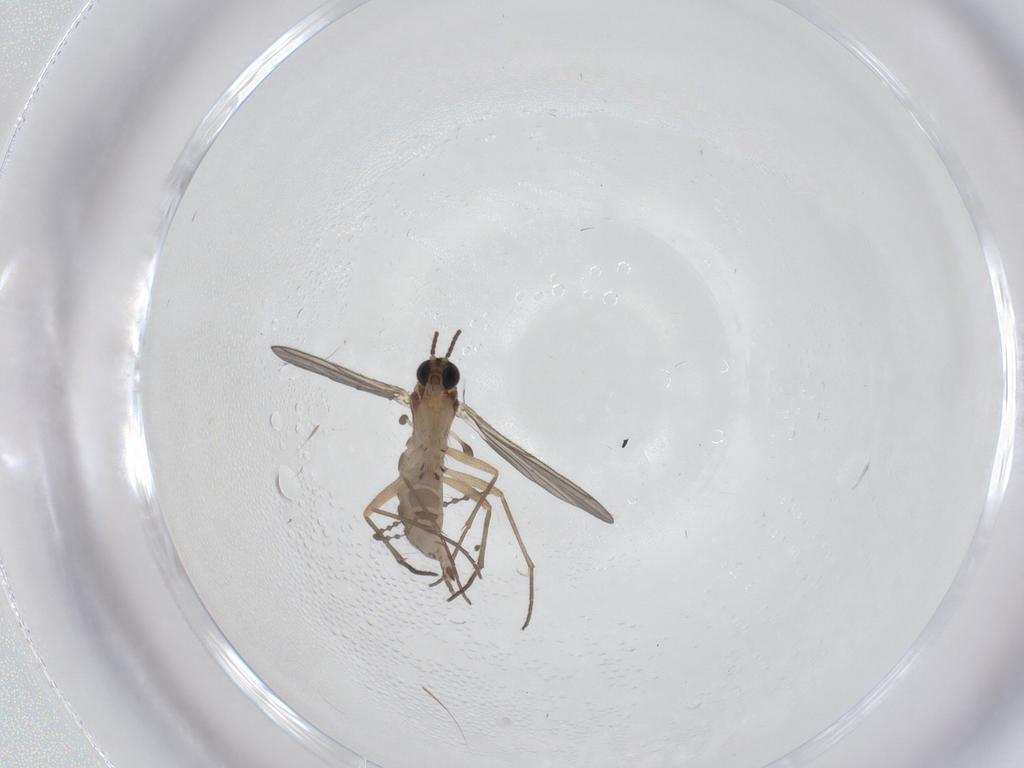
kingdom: Animalia
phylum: Arthropoda
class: Insecta
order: Diptera
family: Sciaridae
